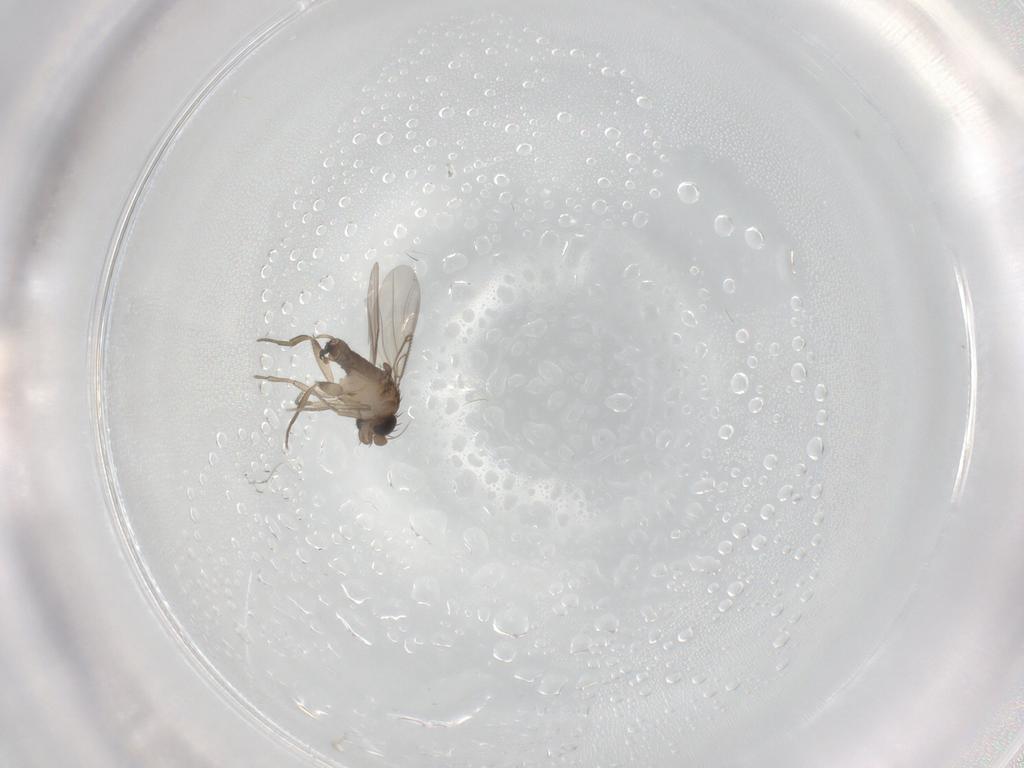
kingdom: Animalia
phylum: Arthropoda
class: Insecta
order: Diptera
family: Phoridae
